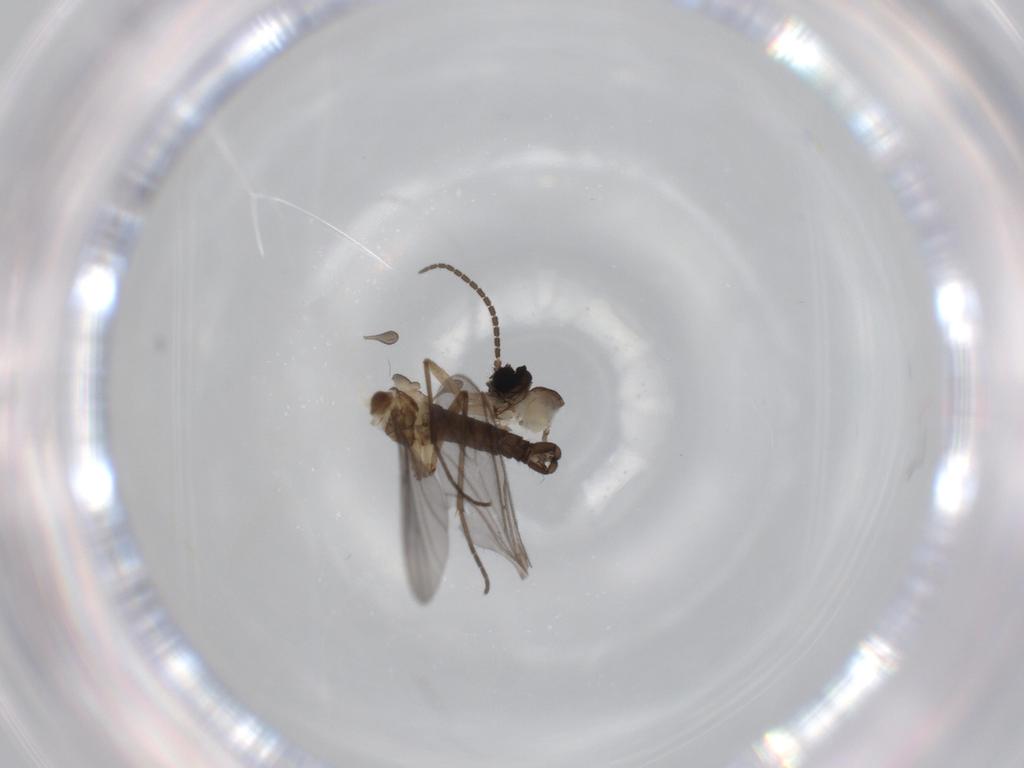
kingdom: Animalia
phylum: Arthropoda
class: Insecta
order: Diptera
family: Sciaridae
